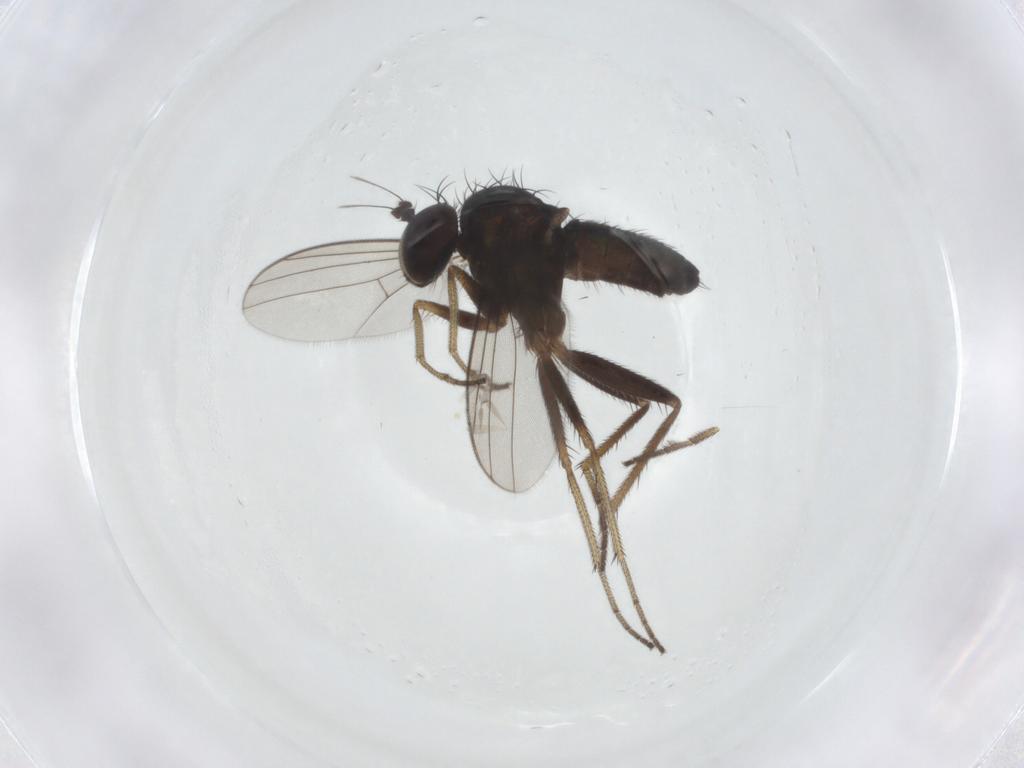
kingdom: Animalia
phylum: Arthropoda
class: Insecta
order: Diptera
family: Dolichopodidae
